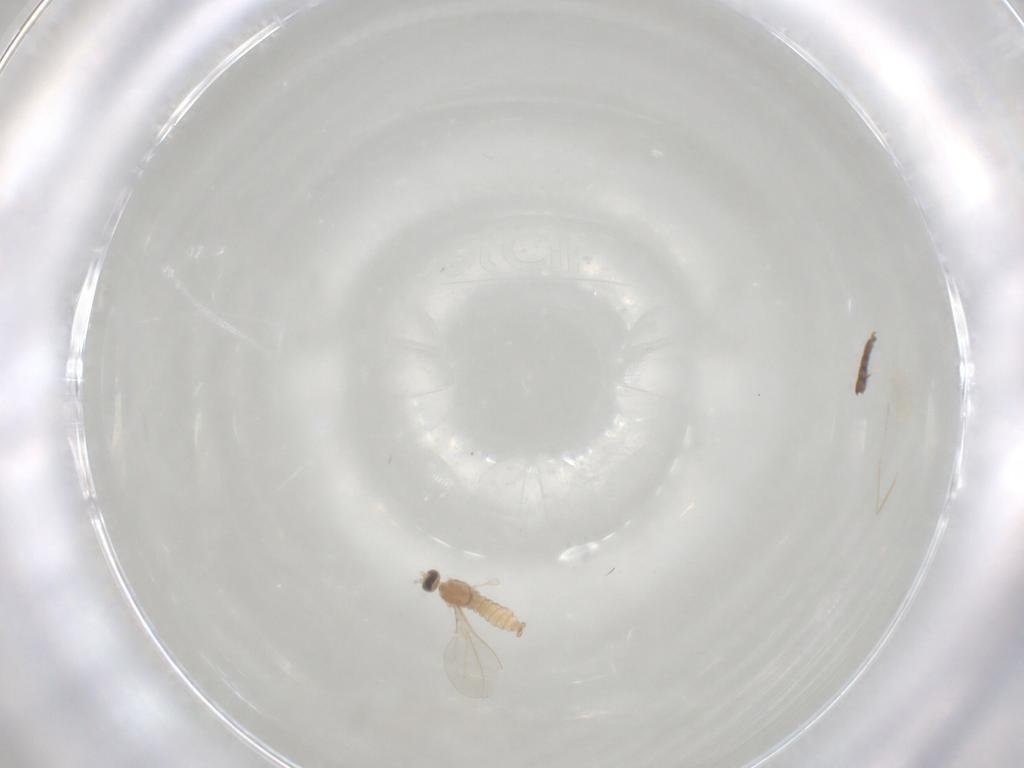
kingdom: Animalia
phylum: Arthropoda
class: Insecta
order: Diptera
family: Cecidomyiidae
